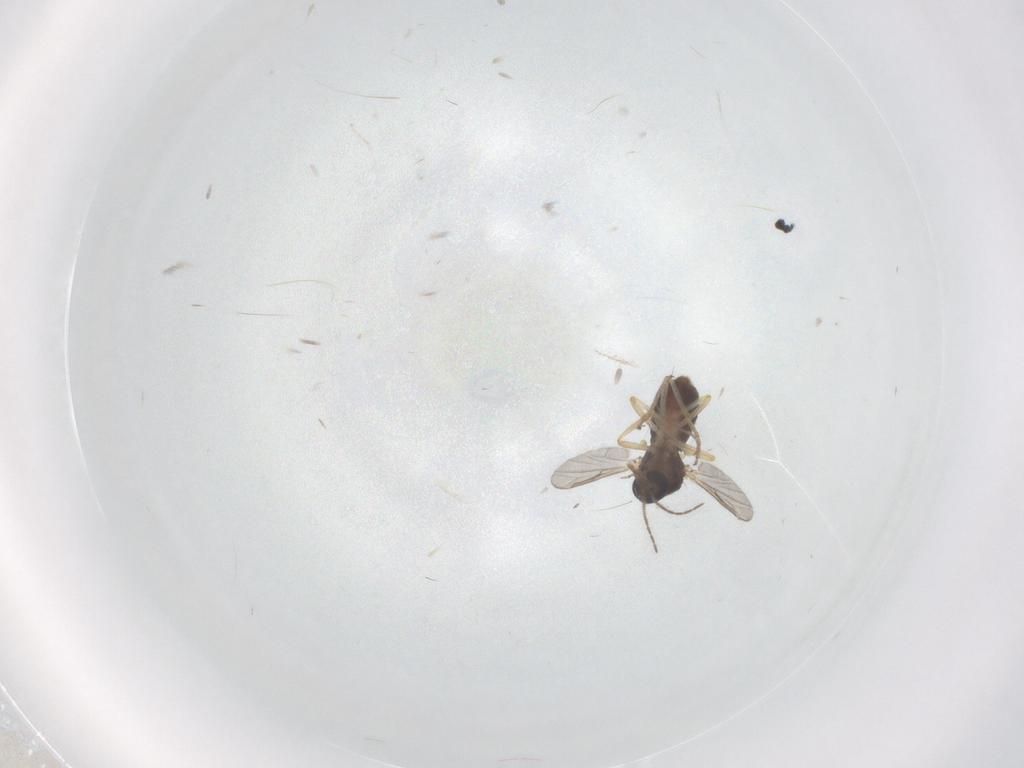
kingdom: Animalia
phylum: Arthropoda
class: Insecta
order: Diptera
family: Ceratopogonidae
